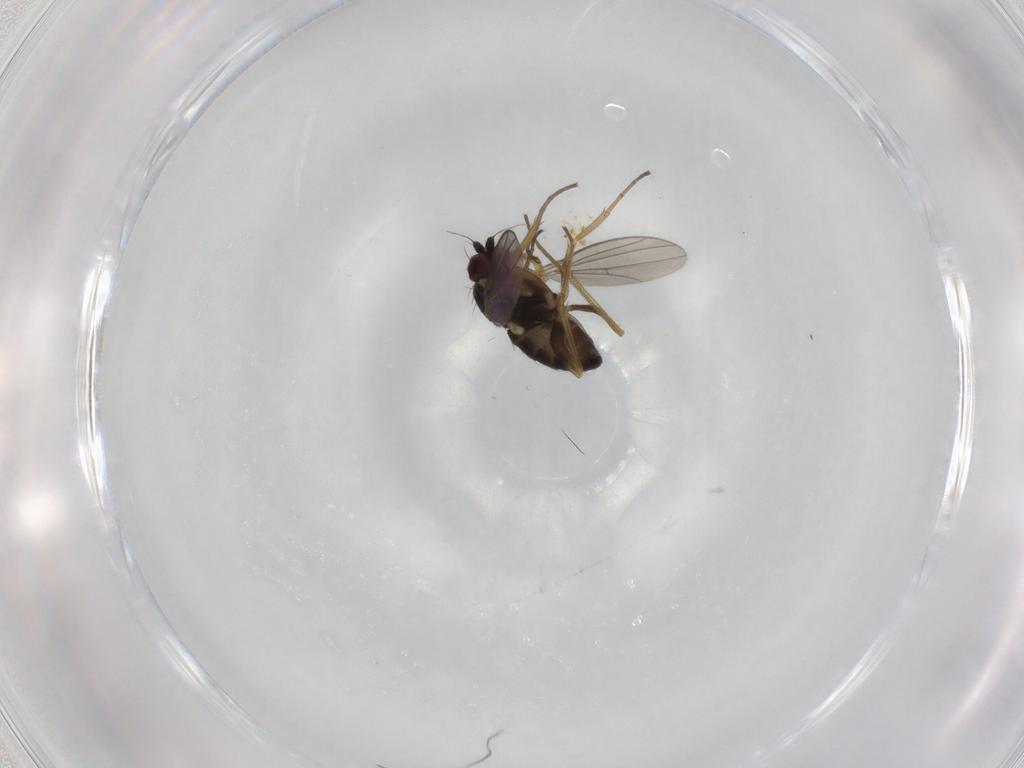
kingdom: Animalia
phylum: Arthropoda
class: Insecta
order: Diptera
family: Dolichopodidae
